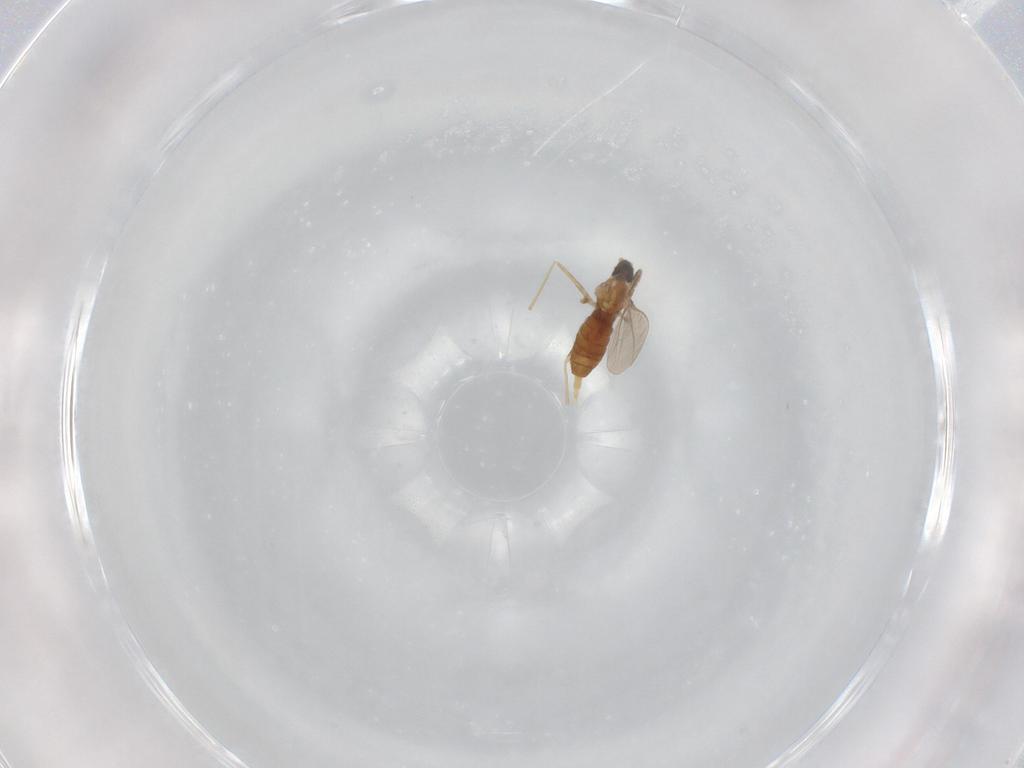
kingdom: Animalia
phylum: Arthropoda
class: Insecta
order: Diptera
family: Cecidomyiidae
